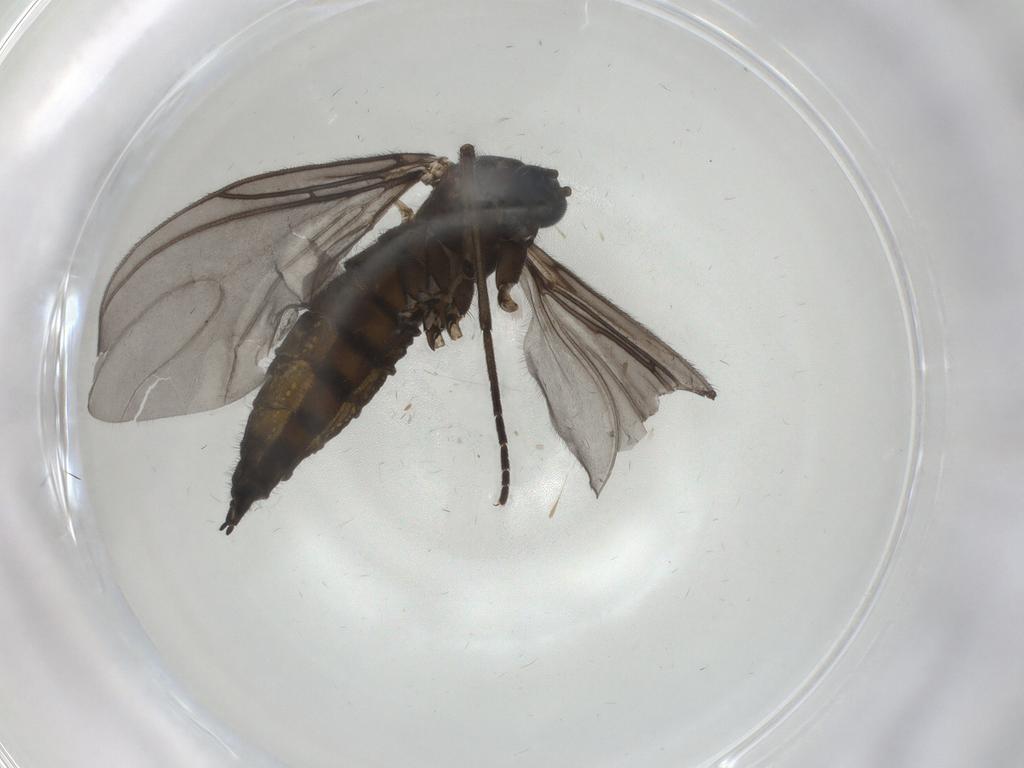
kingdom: Animalia
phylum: Arthropoda
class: Insecta
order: Diptera
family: Sciaridae
